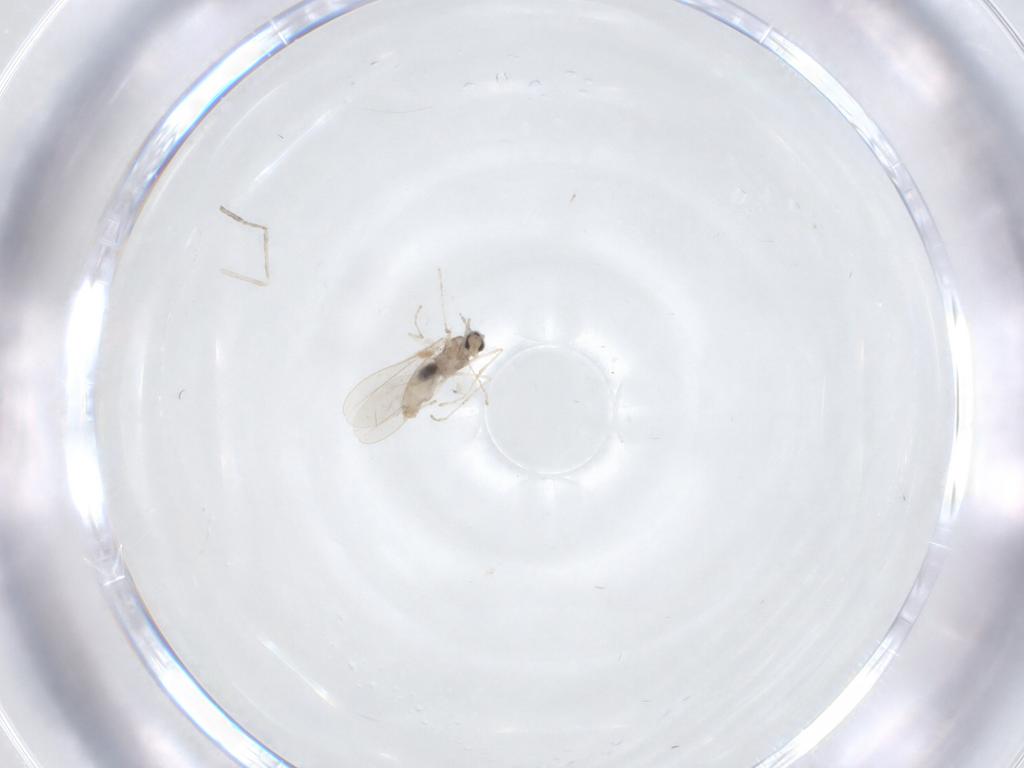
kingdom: Animalia
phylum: Arthropoda
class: Insecta
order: Diptera
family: Cecidomyiidae
